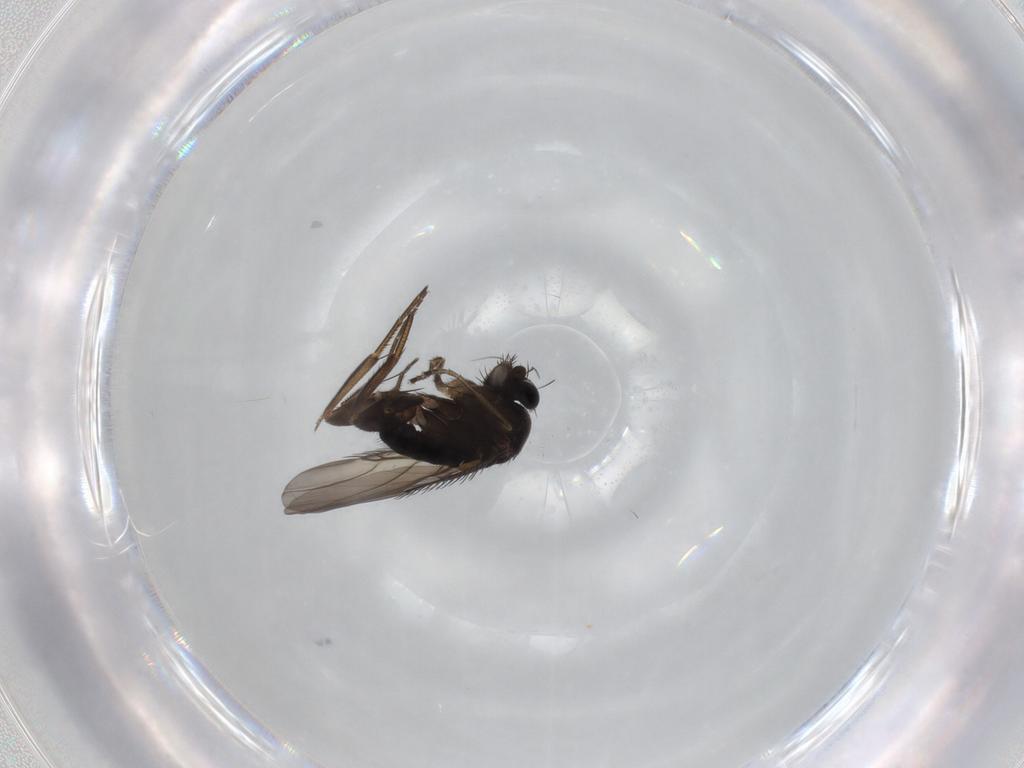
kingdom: Animalia
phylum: Arthropoda
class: Insecta
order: Diptera
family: Phoridae
